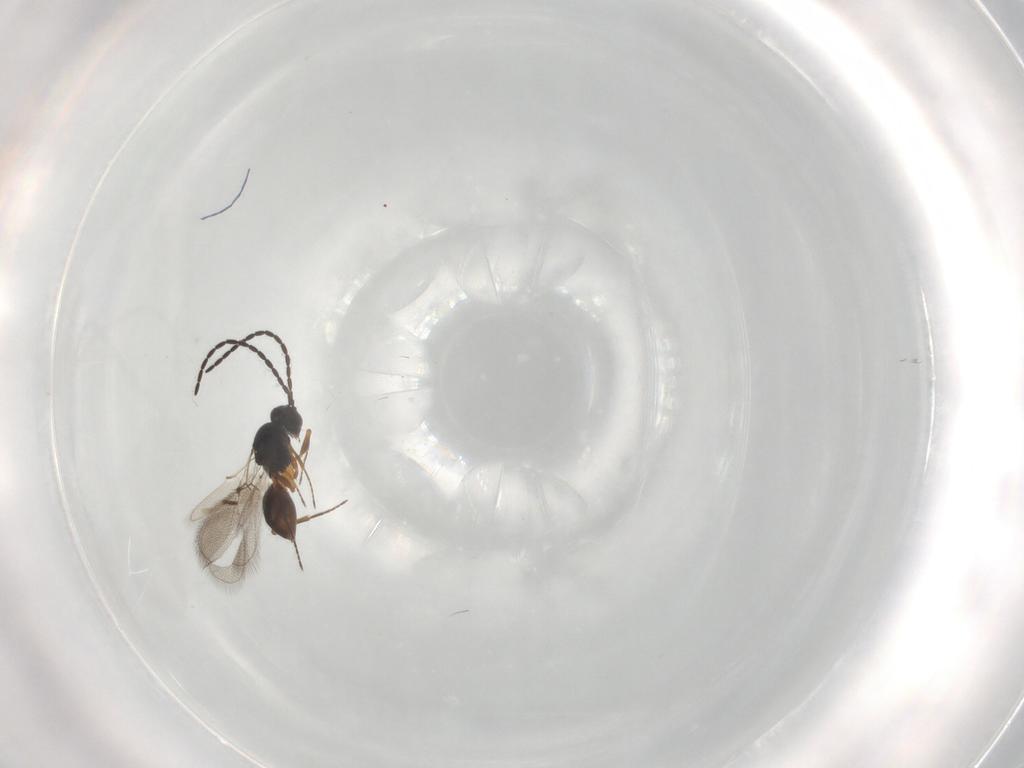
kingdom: Animalia
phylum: Arthropoda
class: Insecta
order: Hymenoptera
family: Figitidae
